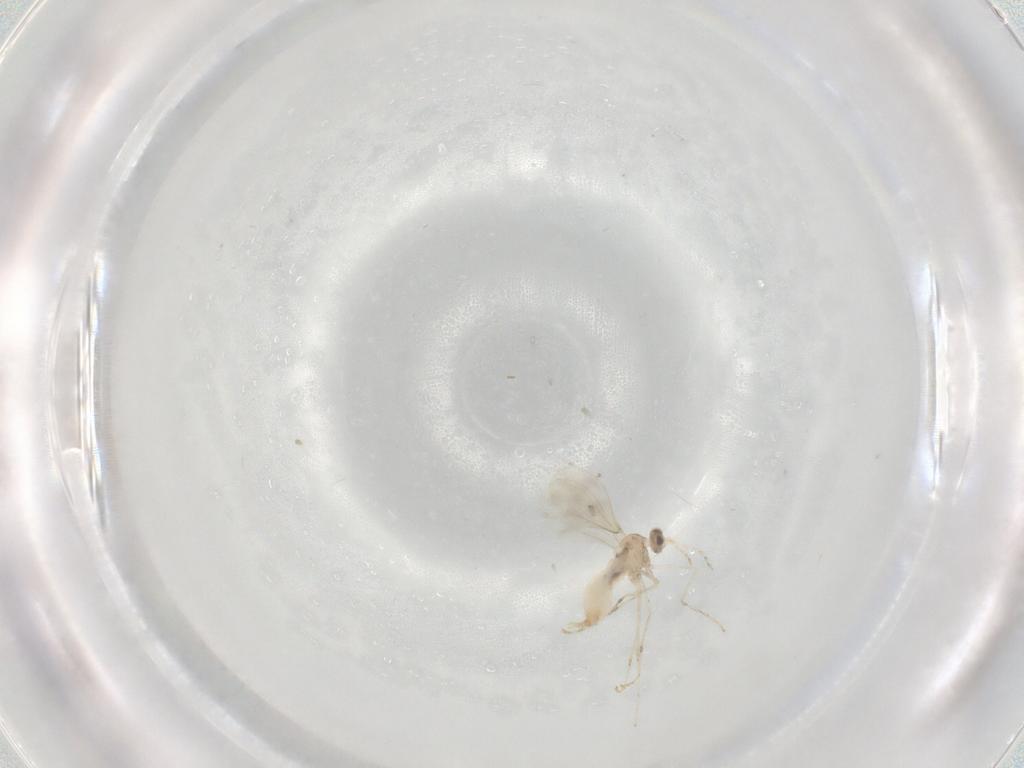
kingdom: Animalia
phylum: Arthropoda
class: Insecta
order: Diptera
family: Cecidomyiidae
